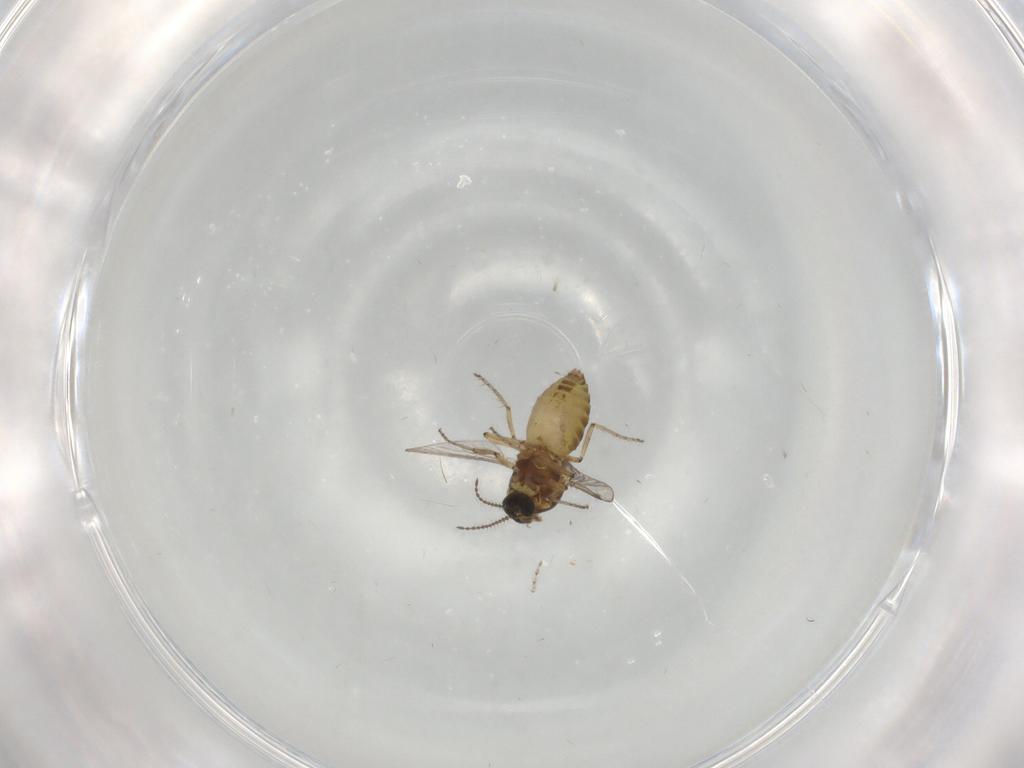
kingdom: Animalia
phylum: Arthropoda
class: Insecta
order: Diptera
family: Ceratopogonidae
